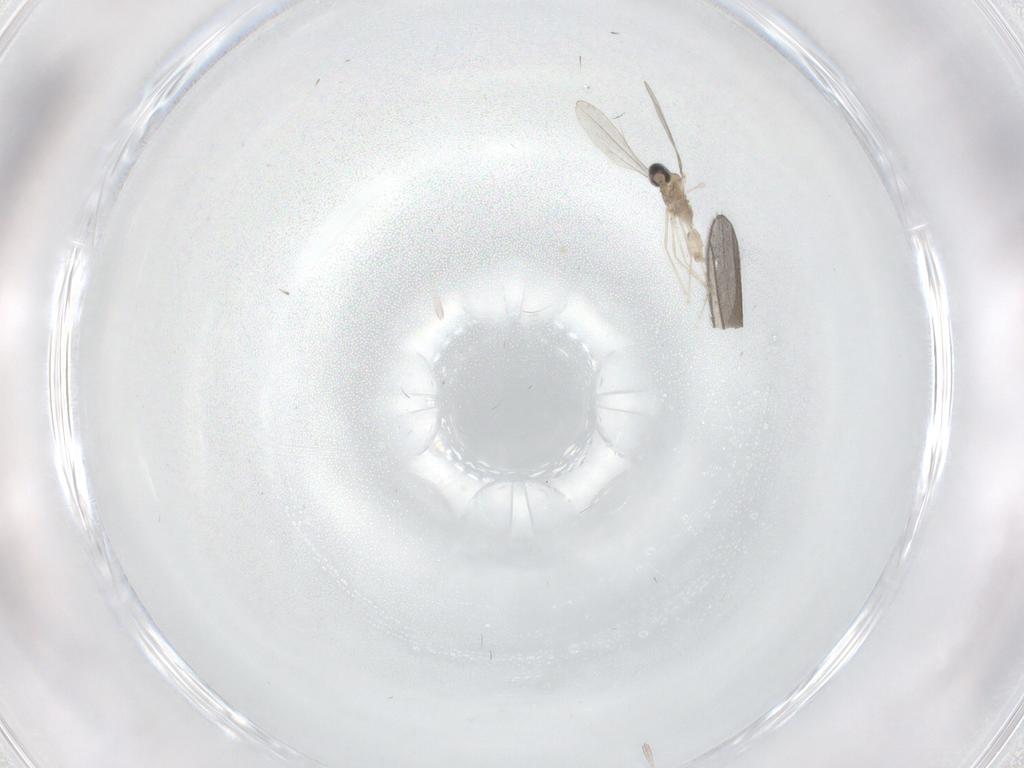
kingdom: Animalia
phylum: Arthropoda
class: Insecta
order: Diptera
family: Cecidomyiidae
